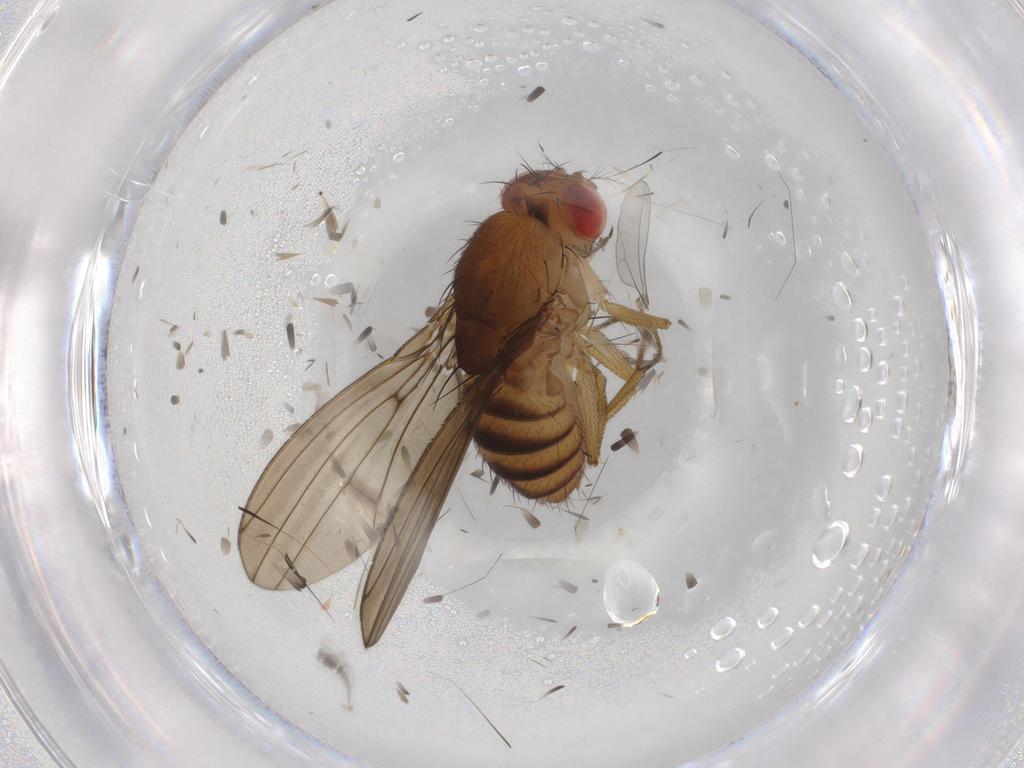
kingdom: Animalia
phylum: Arthropoda
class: Insecta
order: Diptera
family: Drosophilidae
